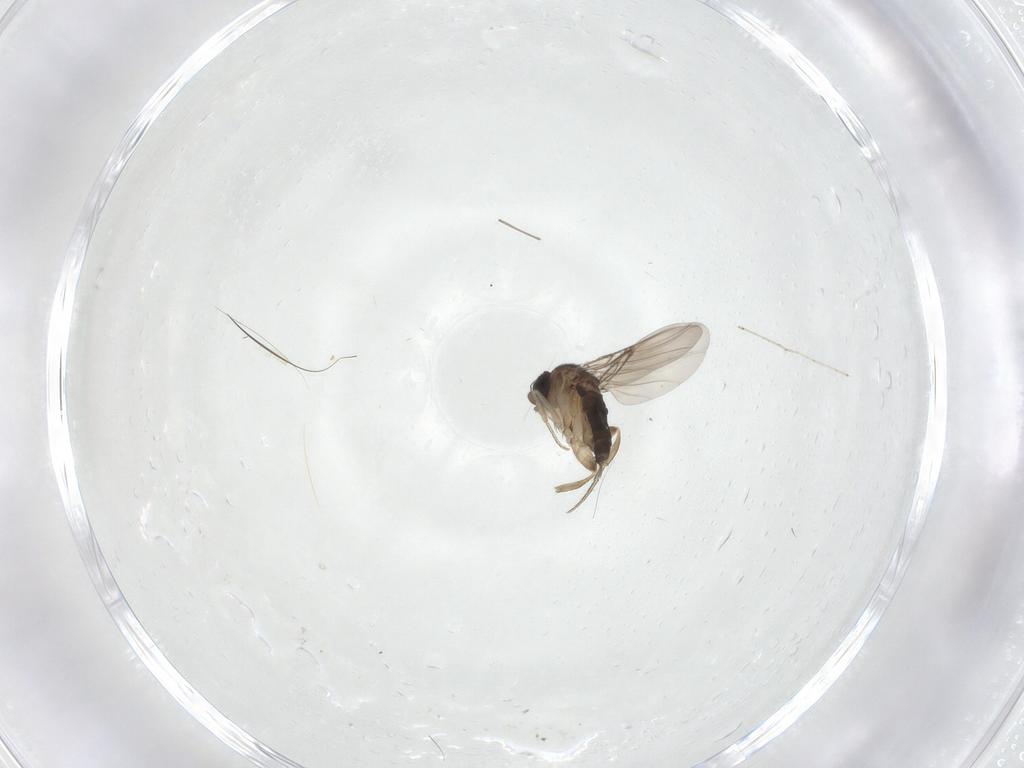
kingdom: Animalia
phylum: Arthropoda
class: Insecta
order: Diptera
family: Phoridae
